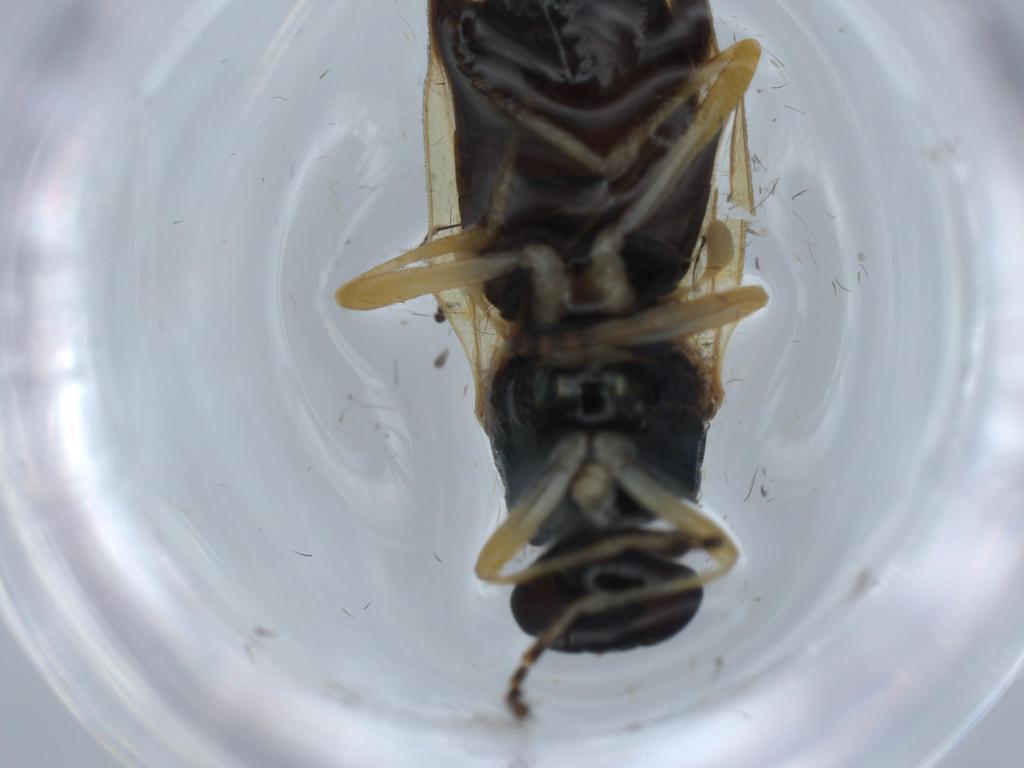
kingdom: Animalia
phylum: Arthropoda
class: Insecta
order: Diptera
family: Stratiomyidae
